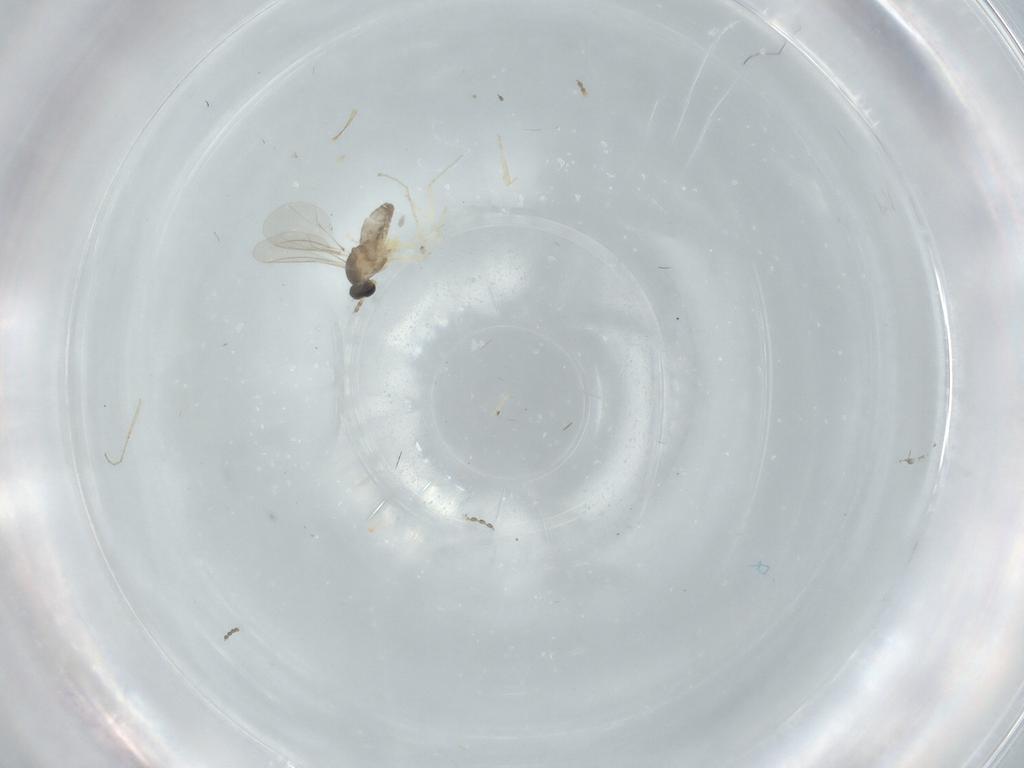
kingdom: Animalia
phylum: Arthropoda
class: Insecta
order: Diptera
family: Cecidomyiidae
